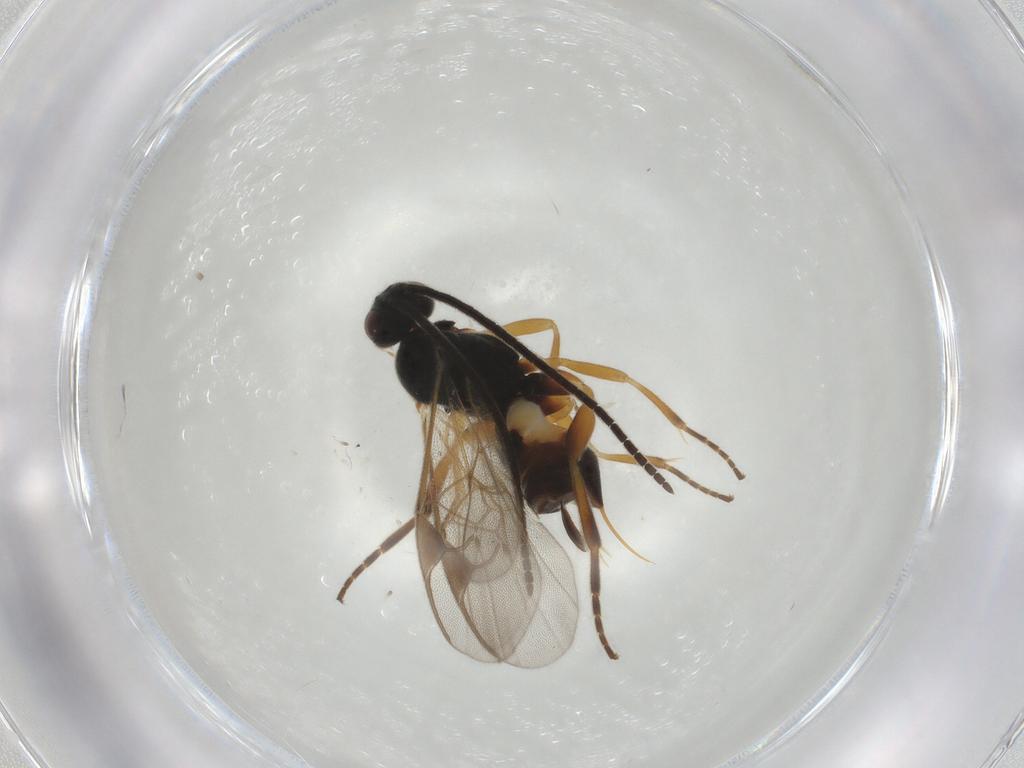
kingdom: Animalia
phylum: Arthropoda
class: Insecta
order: Hymenoptera
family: Braconidae
